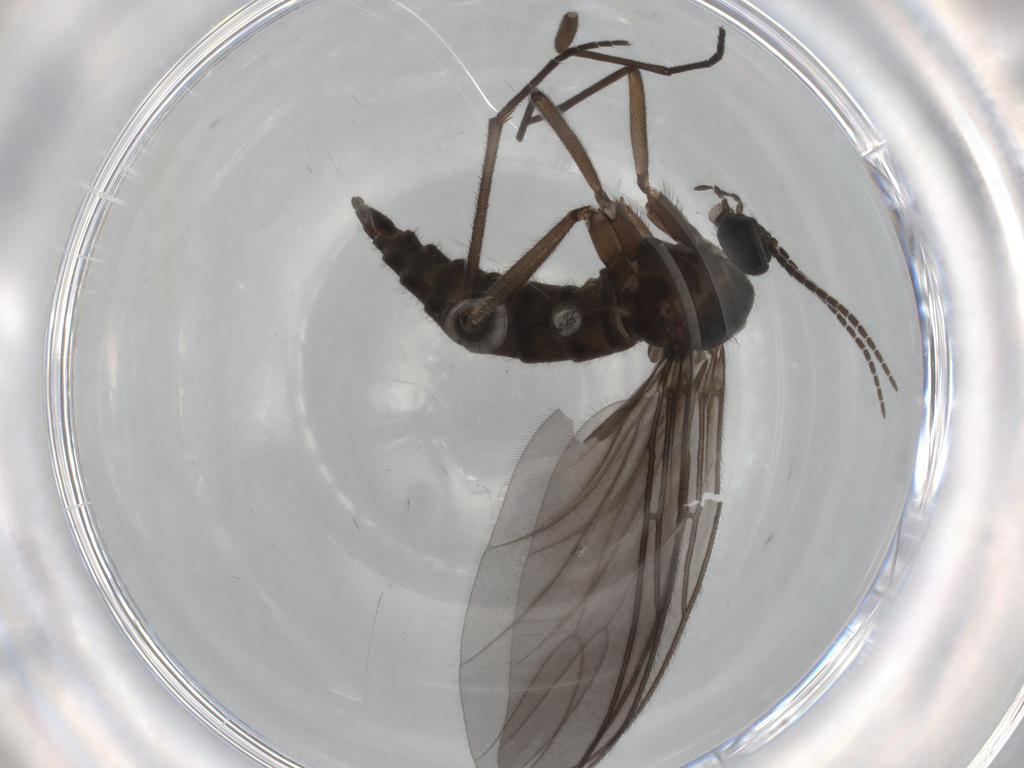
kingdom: Animalia
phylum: Arthropoda
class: Insecta
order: Diptera
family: Sciaridae
